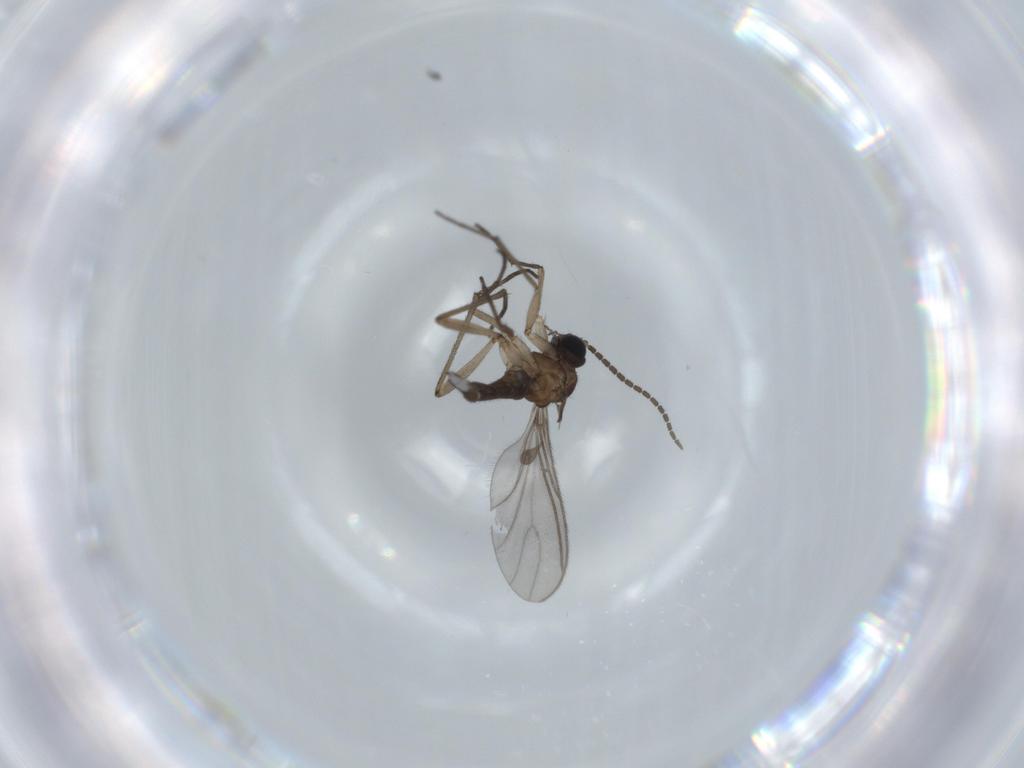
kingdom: Animalia
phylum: Arthropoda
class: Insecta
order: Diptera
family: Sciaridae
